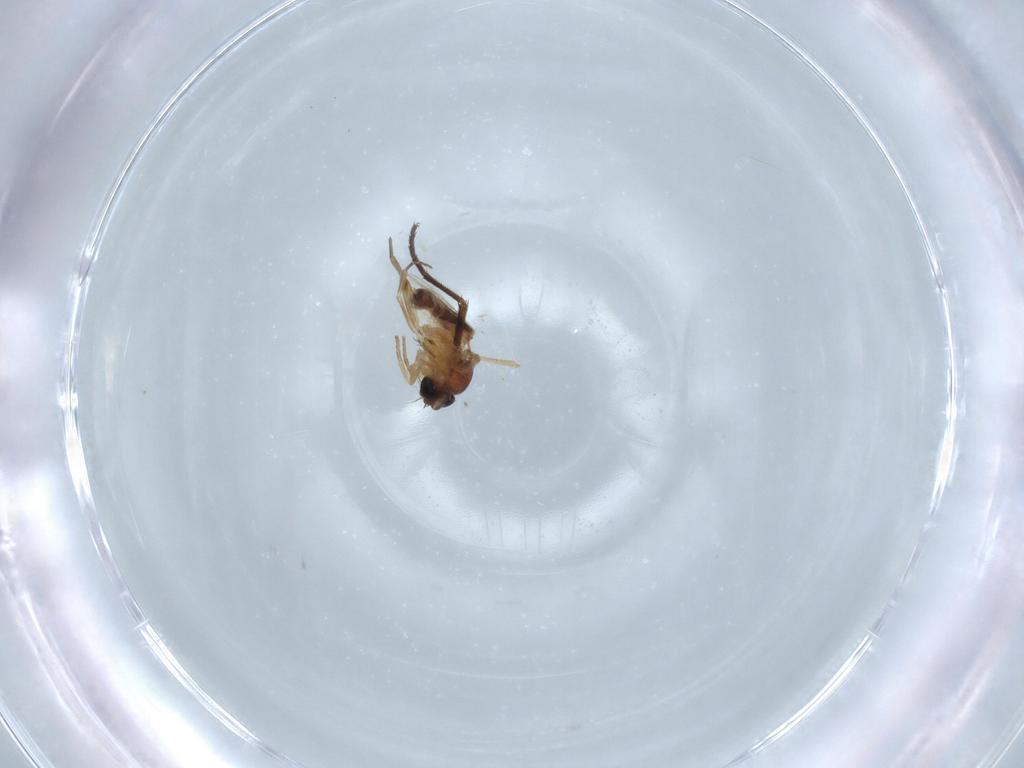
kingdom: Animalia
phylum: Arthropoda
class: Insecta
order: Diptera
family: Dolichopodidae
